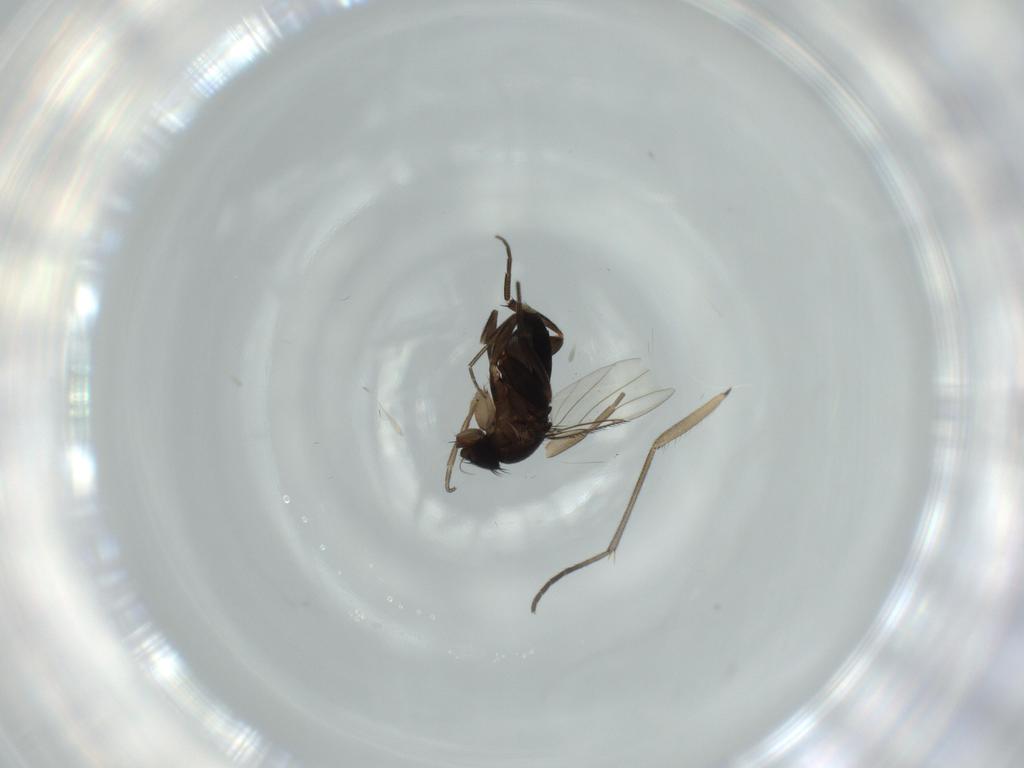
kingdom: Animalia
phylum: Arthropoda
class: Insecta
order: Diptera
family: Phoridae
